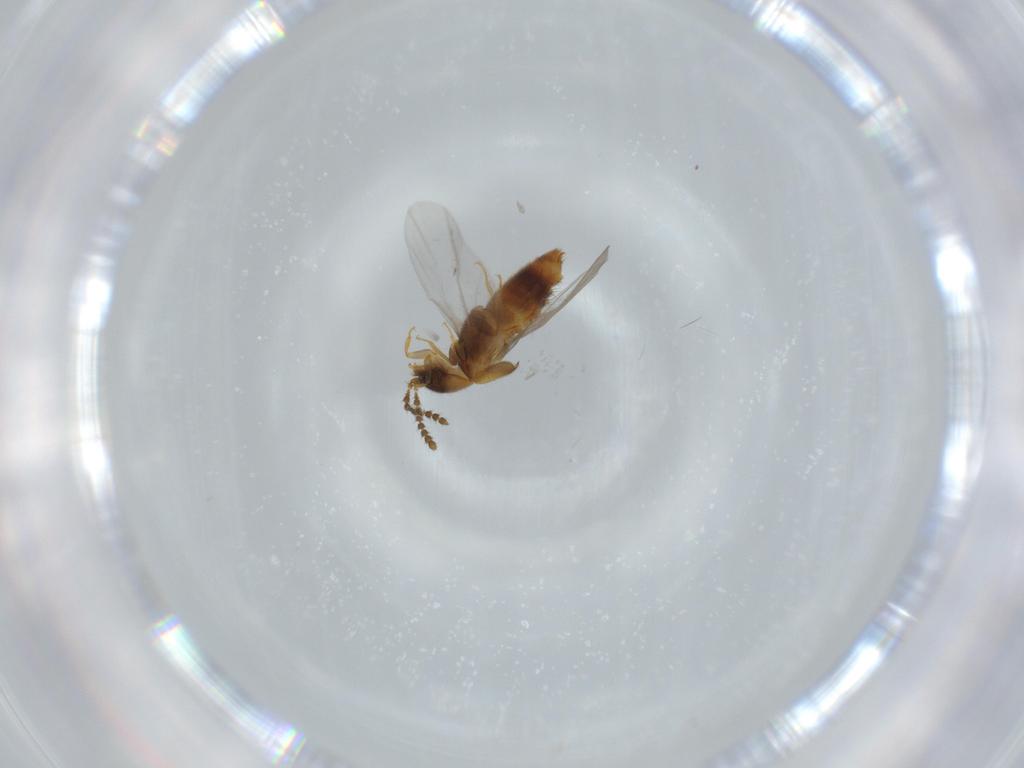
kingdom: Animalia
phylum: Arthropoda
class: Insecta
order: Coleoptera
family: Staphylinidae
